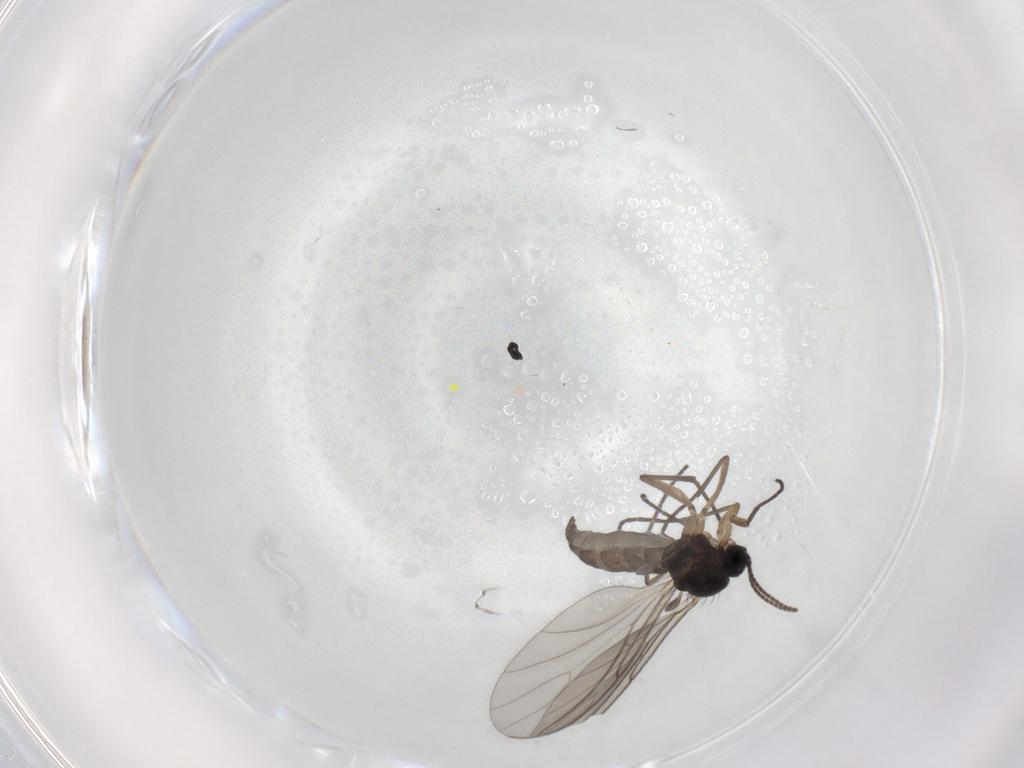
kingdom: Animalia
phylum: Arthropoda
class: Insecta
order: Diptera
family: Sciaridae
